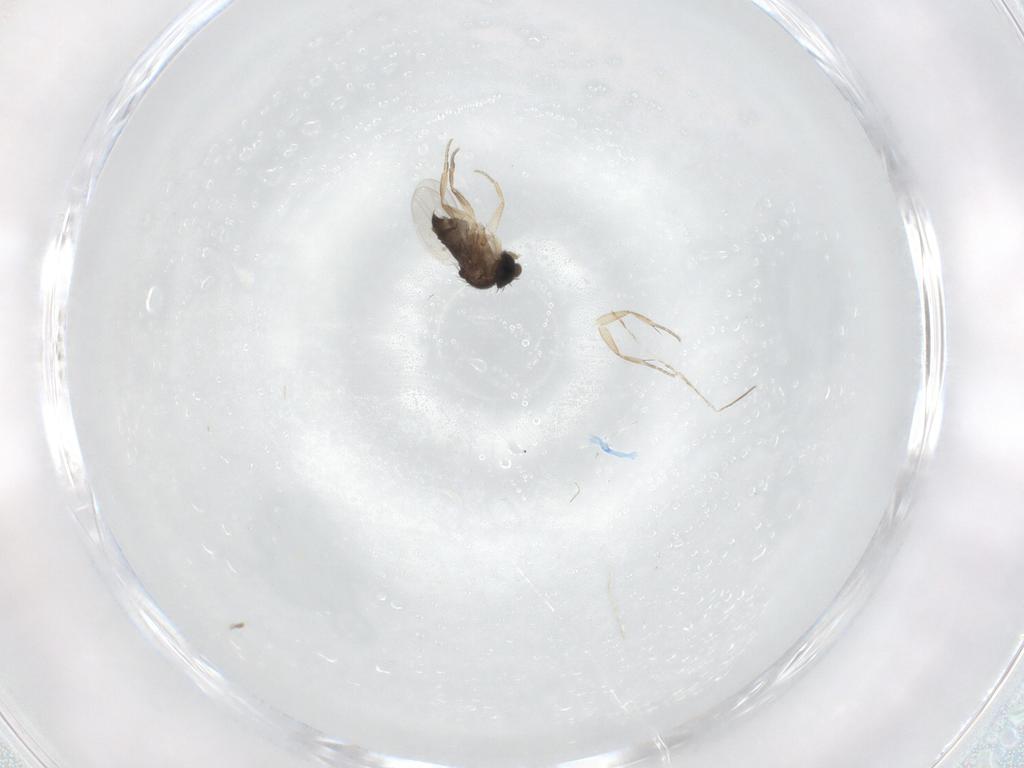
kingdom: Animalia
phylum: Arthropoda
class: Insecta
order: Diptera
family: Phoridae
